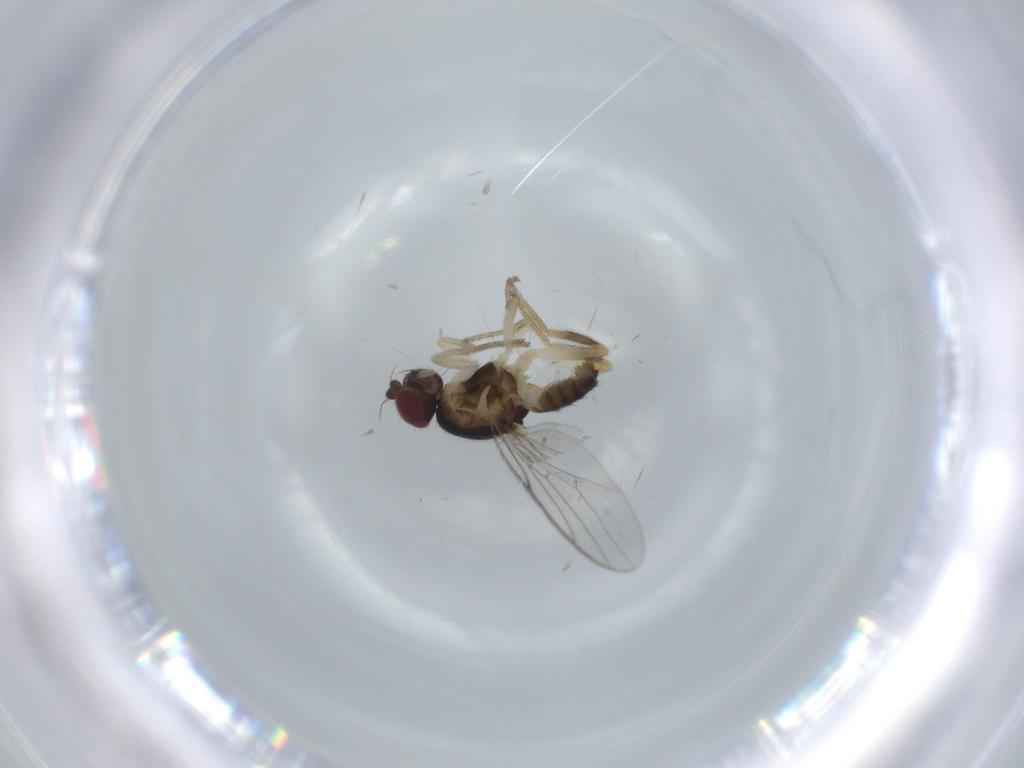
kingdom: Animalia
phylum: Arthropoda
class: Insecta
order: Diptera
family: Chloropidae
